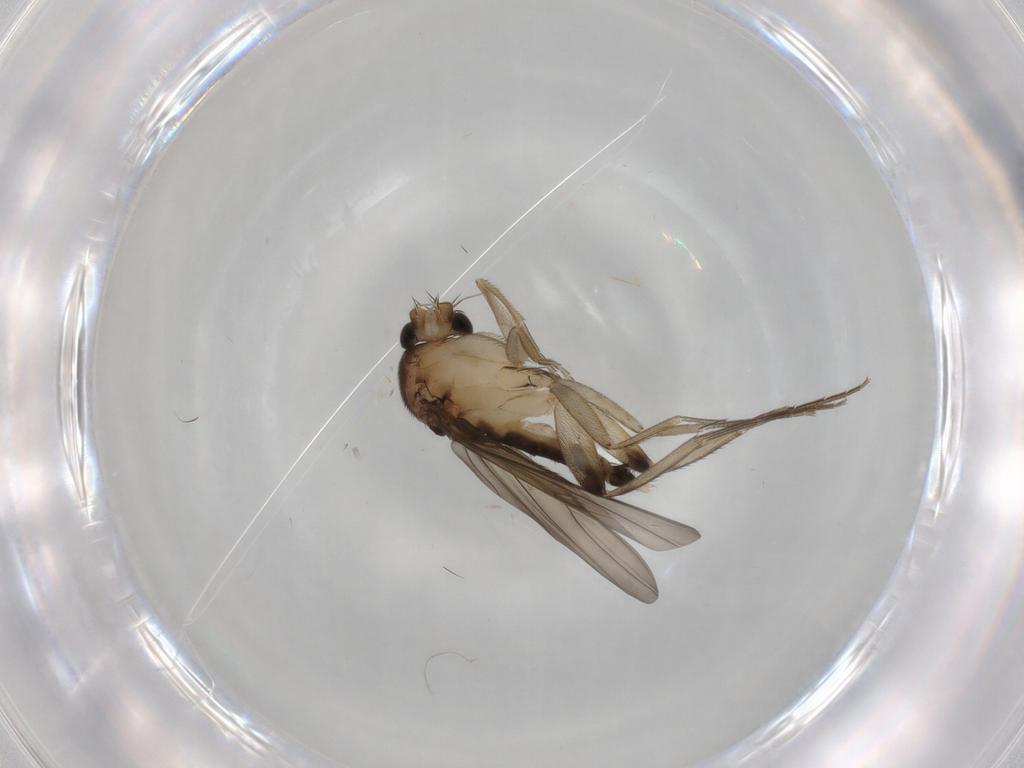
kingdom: Animalia
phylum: Arthropoda
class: Insecta
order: Diptera
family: Phoridae
